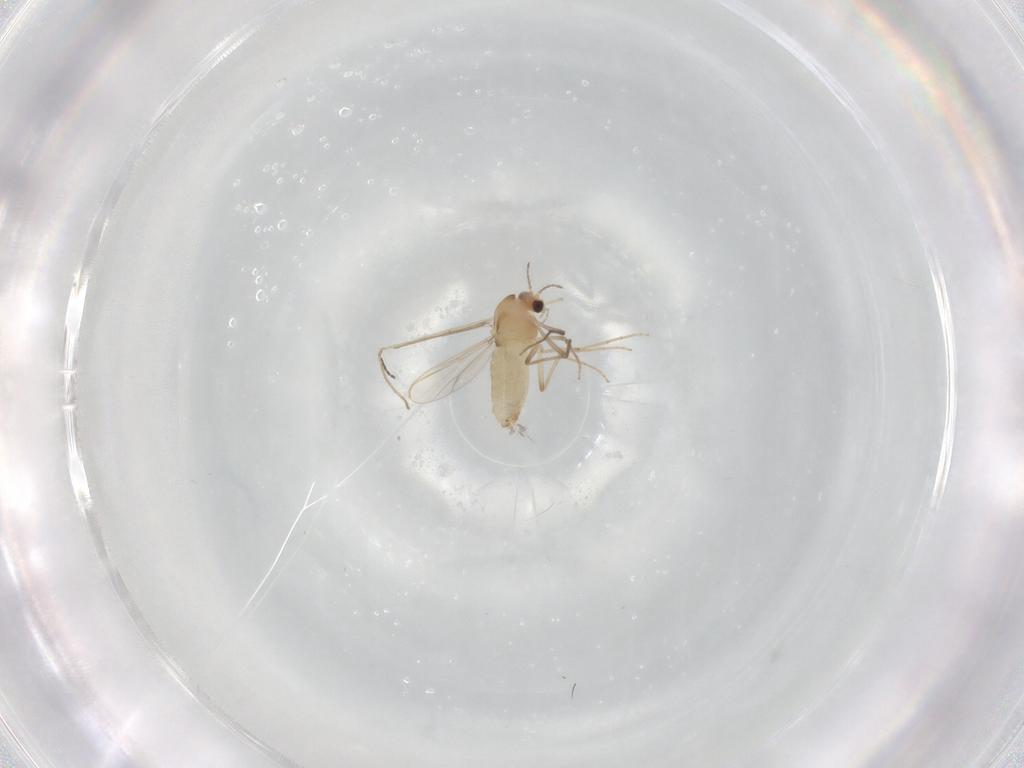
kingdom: Animalia
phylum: Arthropoda
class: Insecta
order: Diptera
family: Chironomidae
